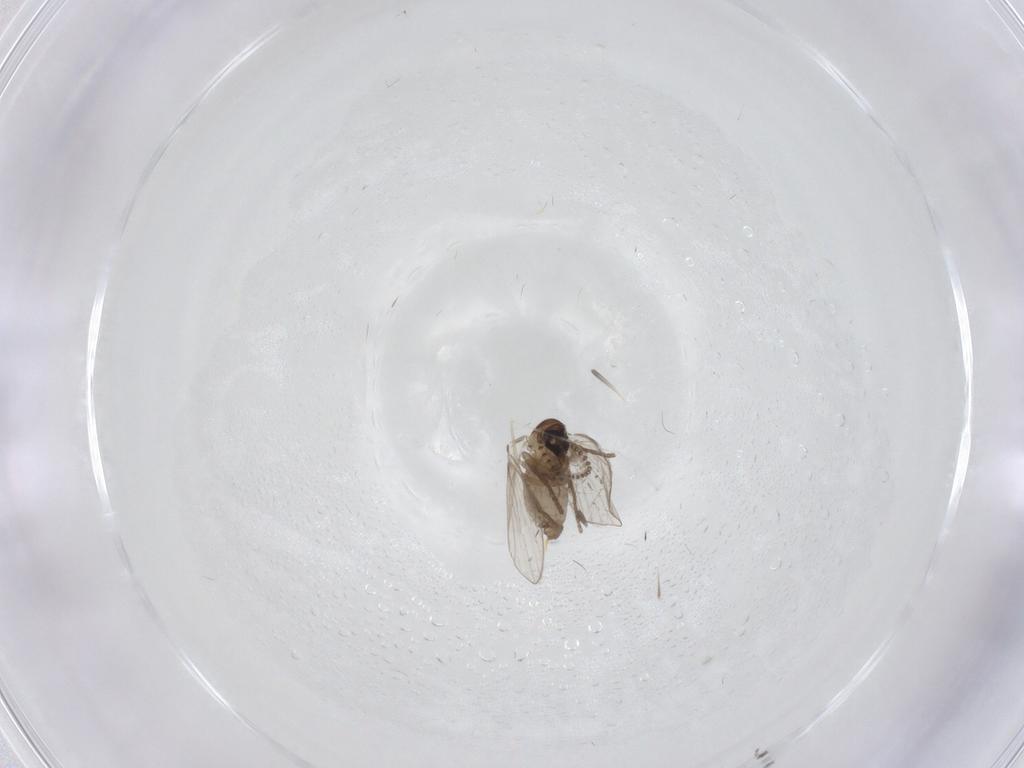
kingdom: Animalia
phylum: Arthropoda
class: Insecta
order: Diptera
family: Psychodidae
